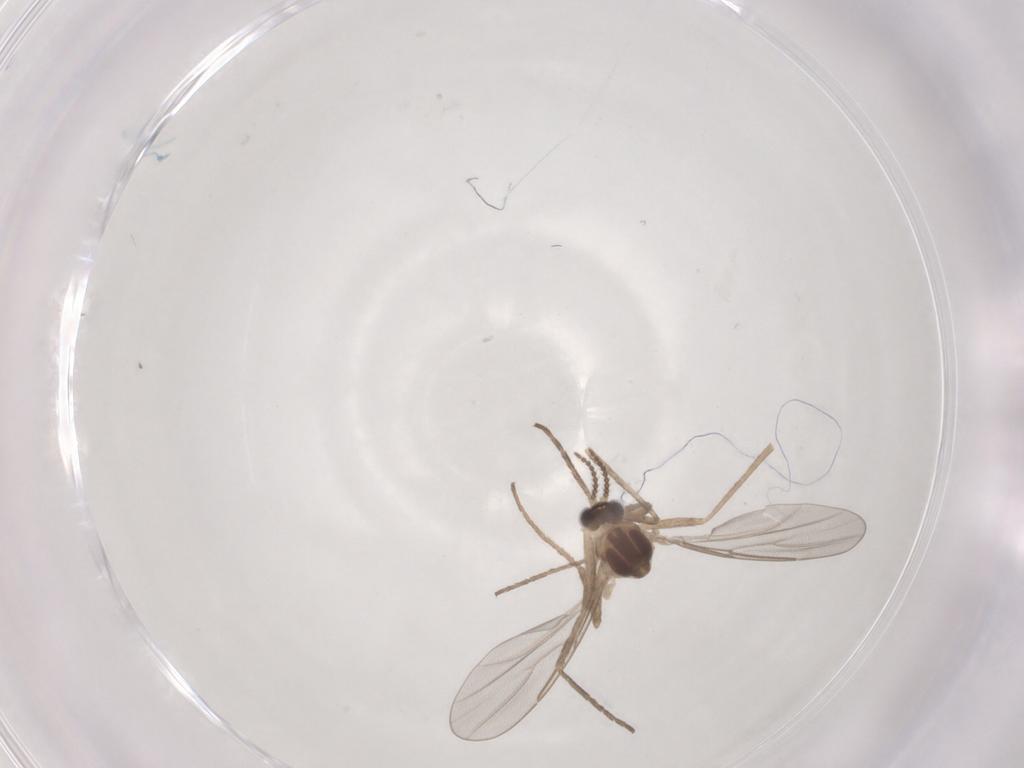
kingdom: Animalia
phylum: Arthropoda
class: Insecta
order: Diptera
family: Cecidomyiidae
